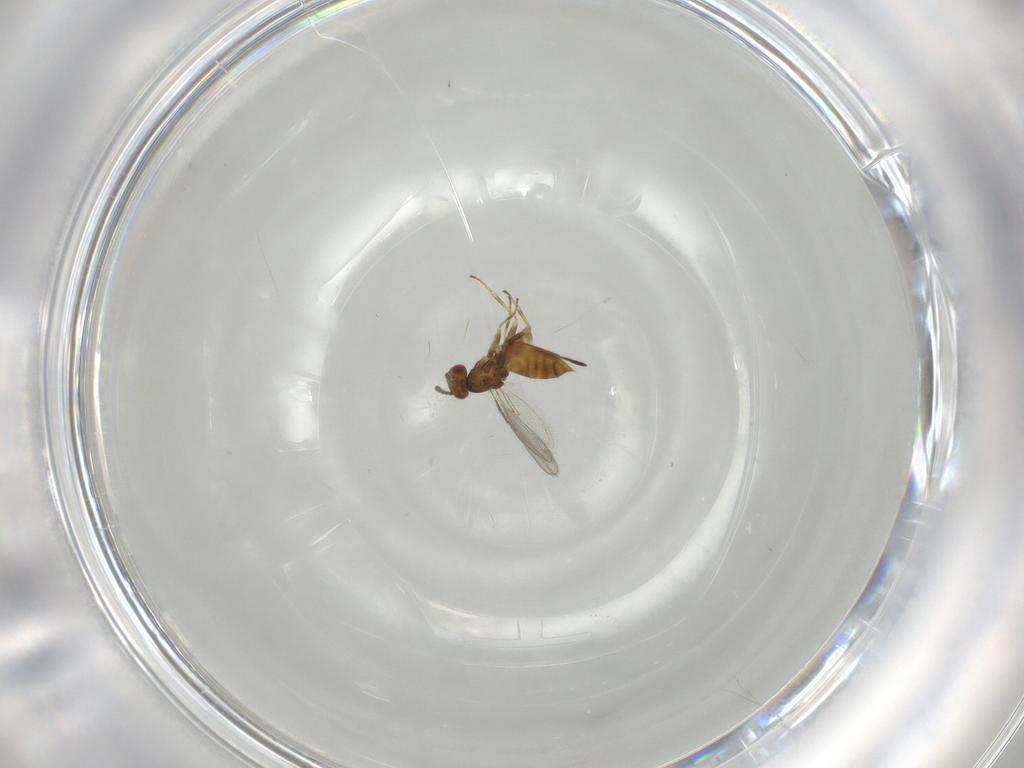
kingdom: Animalia
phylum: Arthropoda
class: Insecta
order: Hymenoptera
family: Eulophidae
